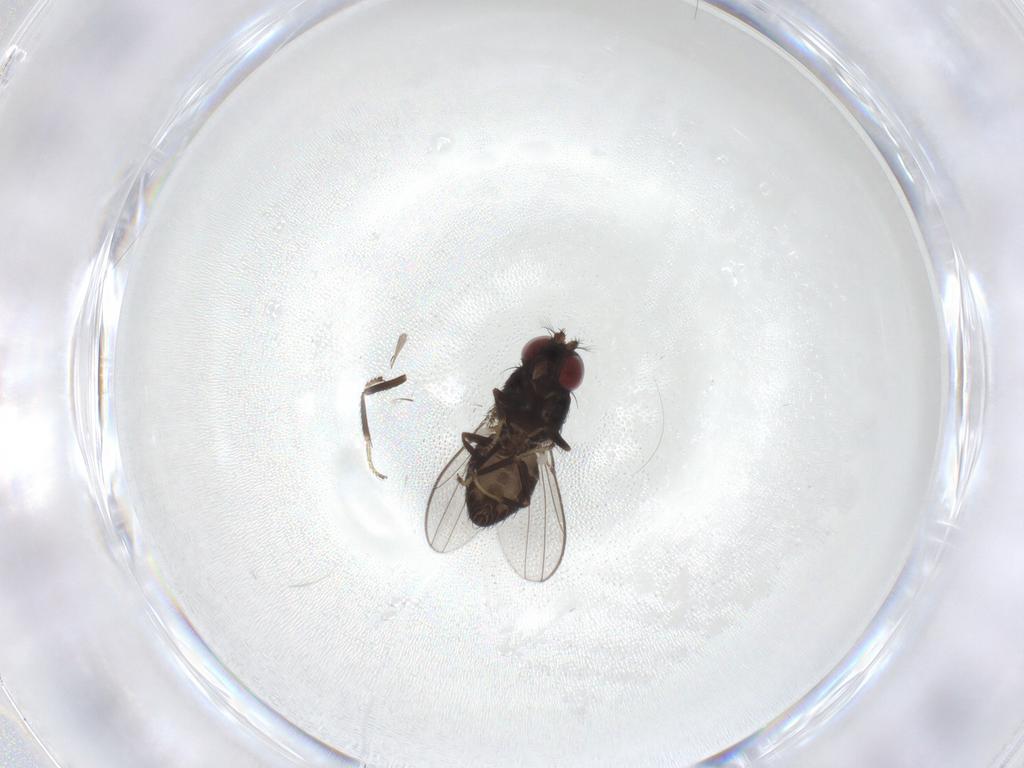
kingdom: Animalia
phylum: Arthropoda
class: Insecta
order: Diptera
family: Ephydridae
